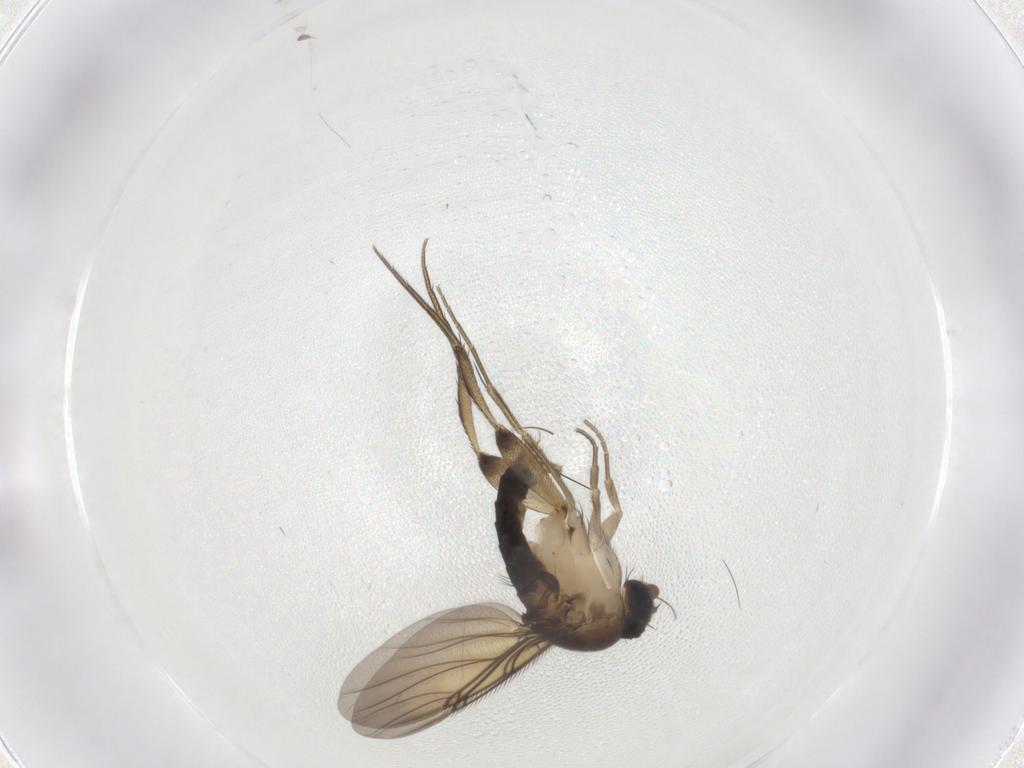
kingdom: Animalia
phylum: Arthropoda
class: Insecta
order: Diptera
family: Phoridae
